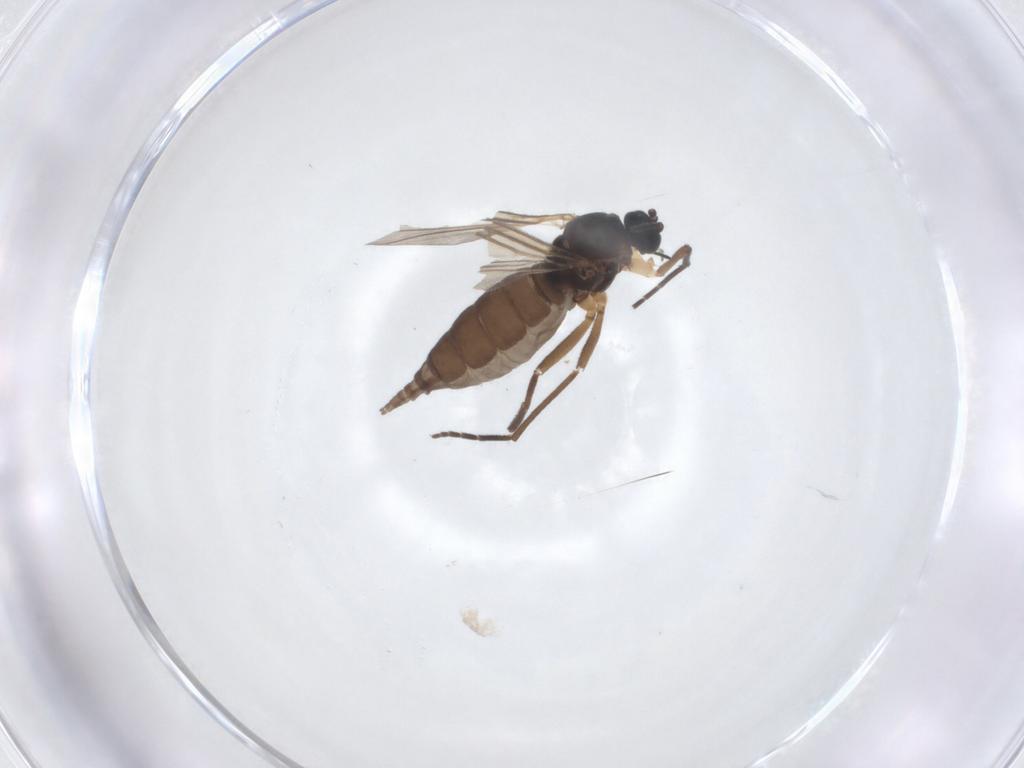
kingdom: Animalia
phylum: Arthropoda
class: Insecta
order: Diptera
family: Sciaridae
